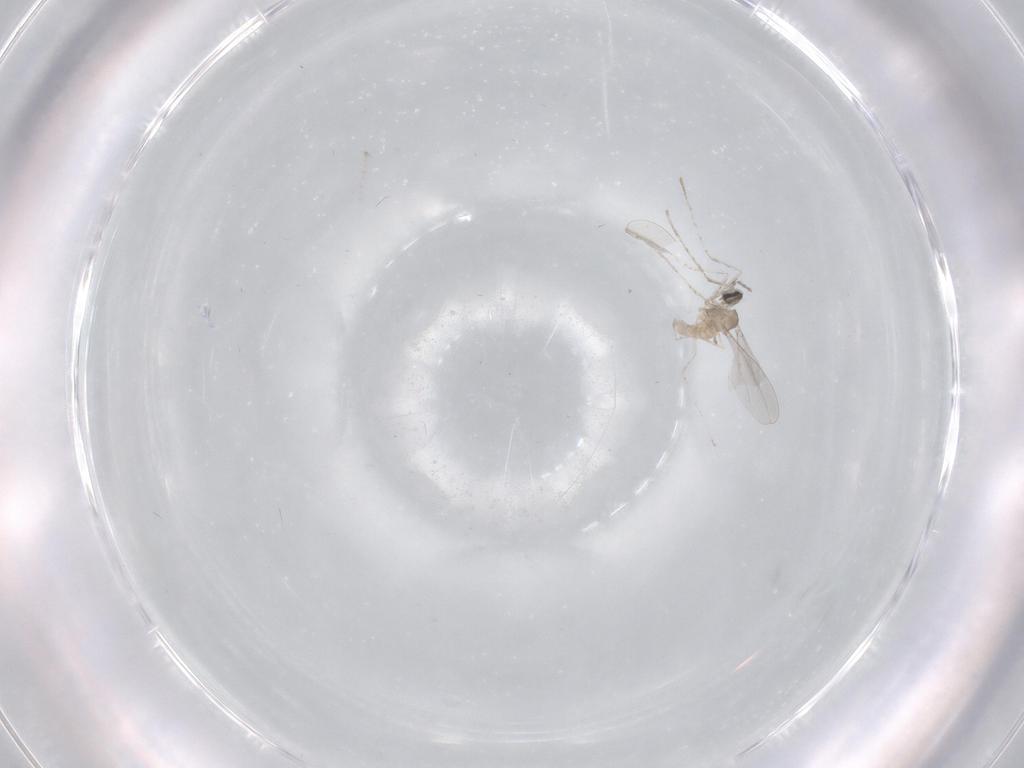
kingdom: Animalia
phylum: Arthropoda
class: Insecta
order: Diptera
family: Cecidomyiidae
